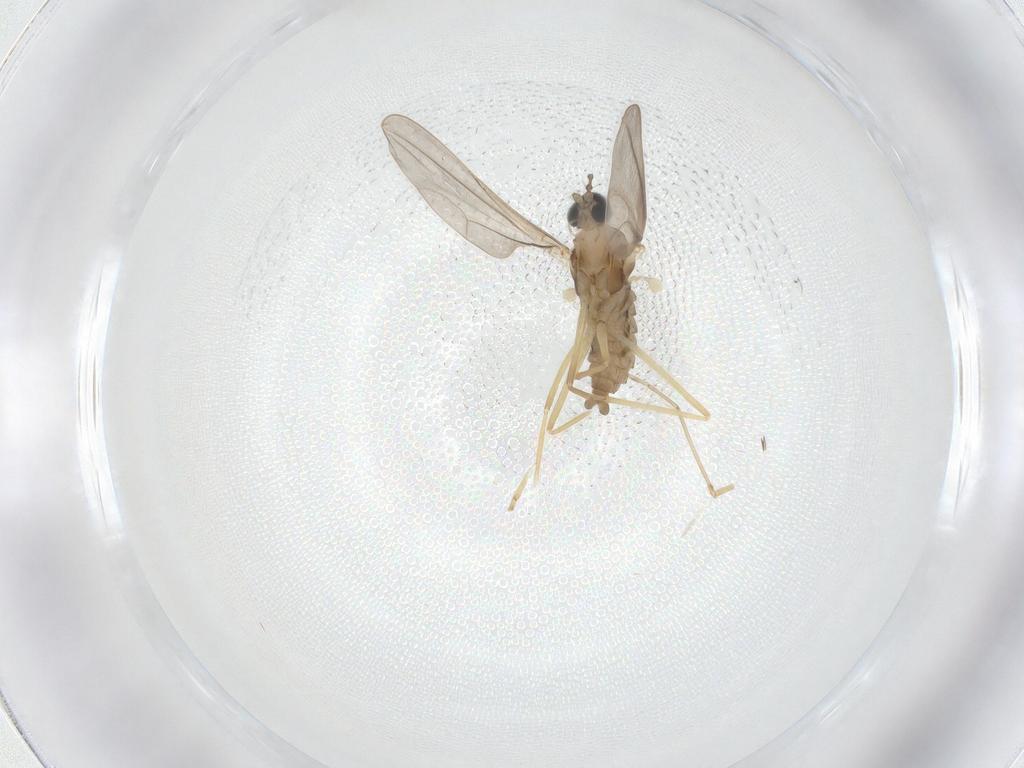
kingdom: Animalia
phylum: Arthropoda
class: Insecta
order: Diptera
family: Cecidomyiidae
